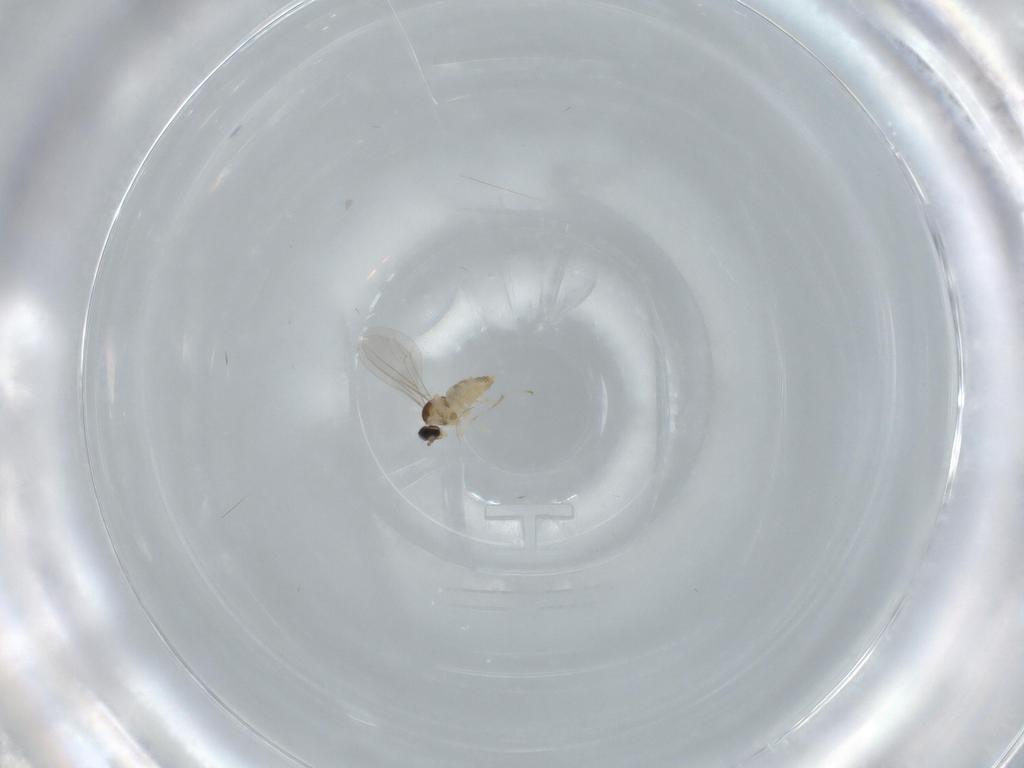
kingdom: Animalia
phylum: Arthropoda
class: Insecta
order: Diptera
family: Cecidomyiidae
